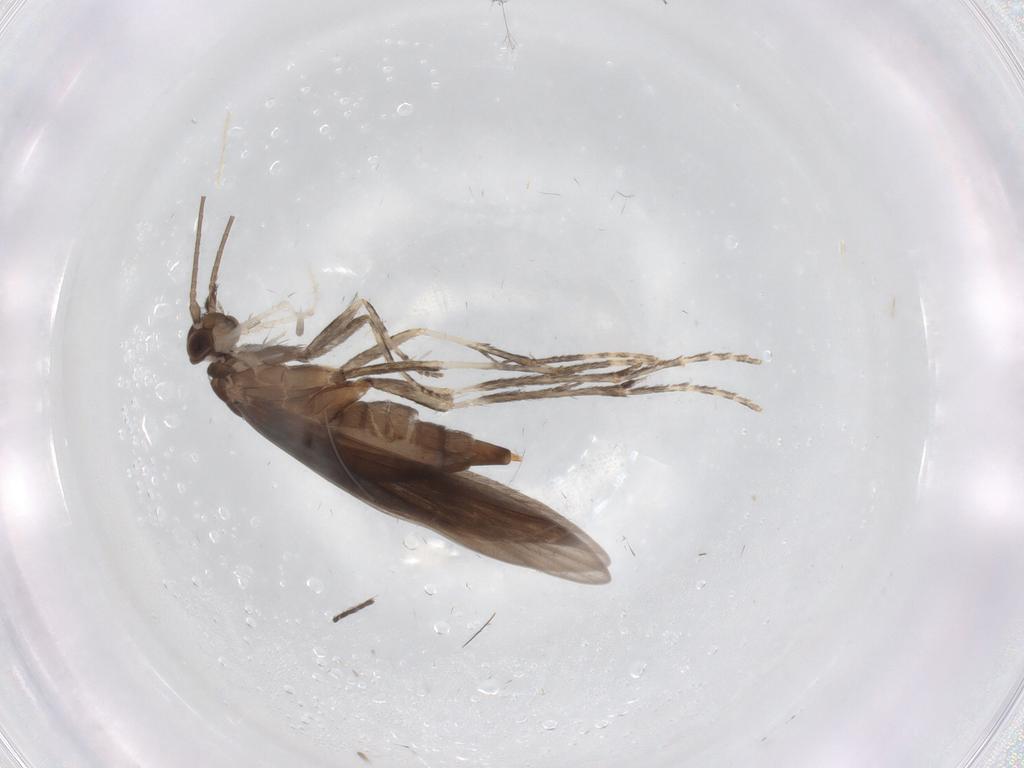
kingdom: Animalia
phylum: Arthropoda
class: Insecta
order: Trichoptera
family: Xiphocentronidae
